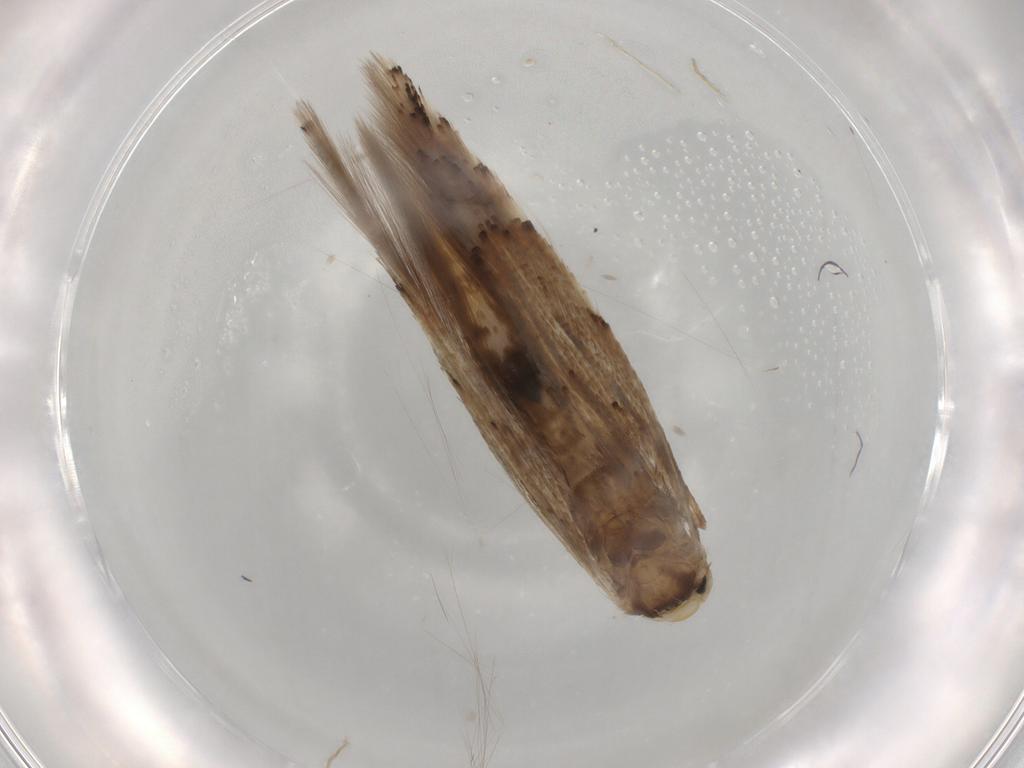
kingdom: Animalia
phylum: Arthropoda
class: Insecta
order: Lepidoptera
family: Gracillariidae
